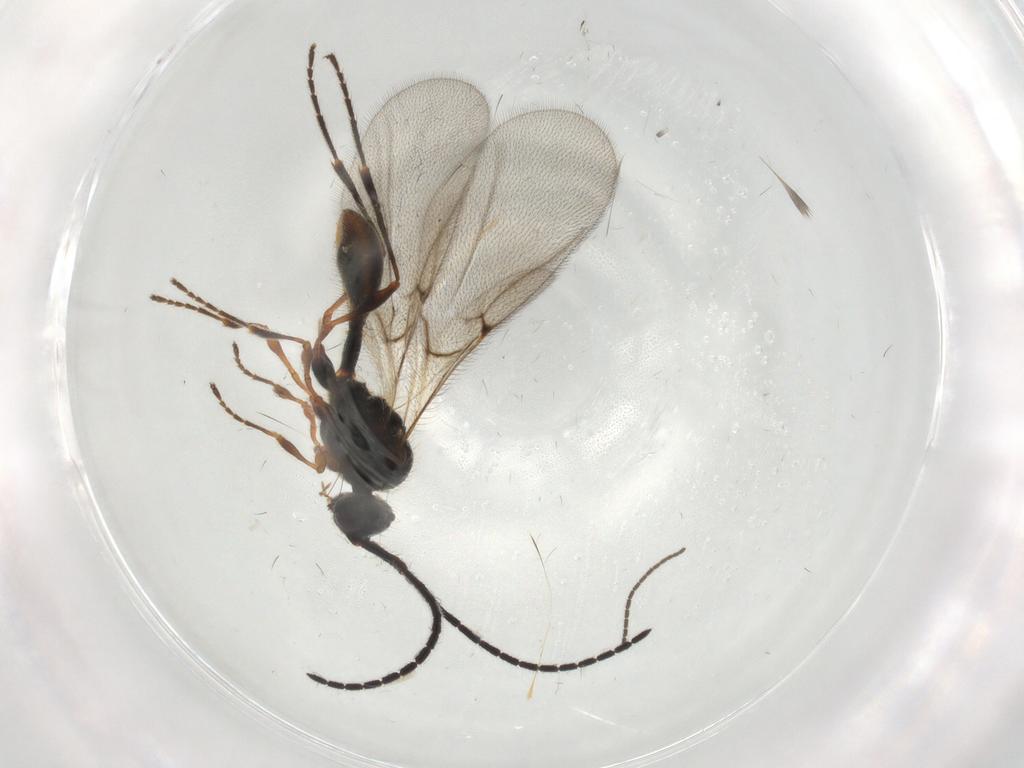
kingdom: Animalia
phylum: Arthropoda
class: Insecta
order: Hymenoptera
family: Diapriidae
